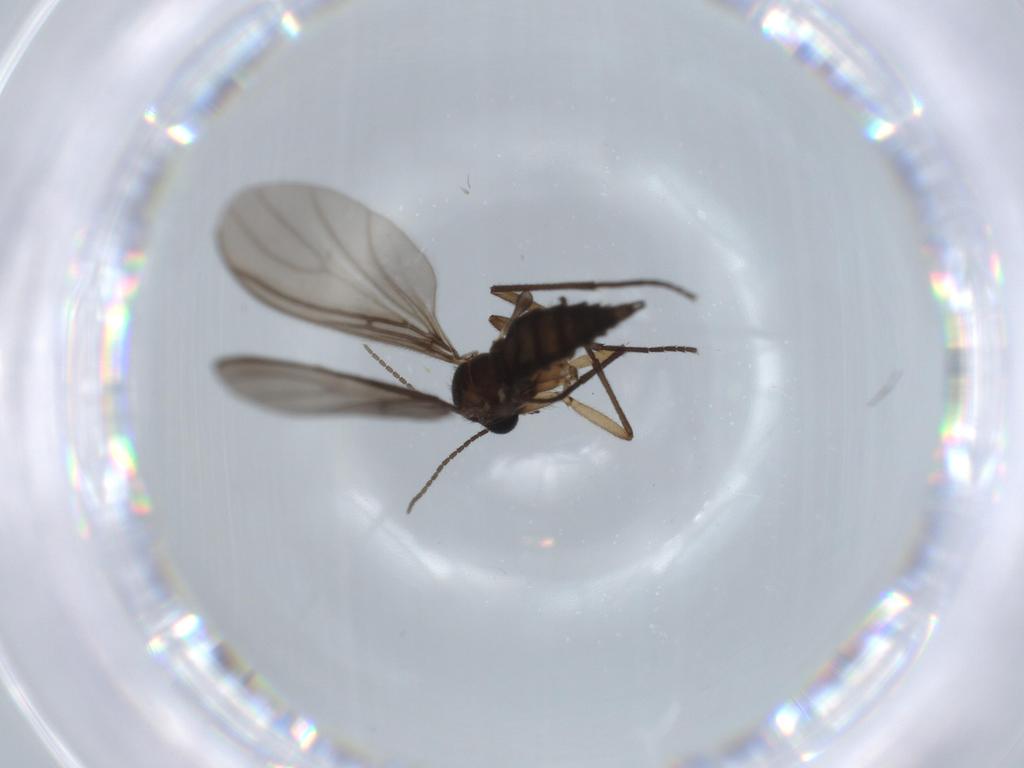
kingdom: Animalia
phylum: Arthropoda
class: Insecta
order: Diptera
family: Sciaridae
